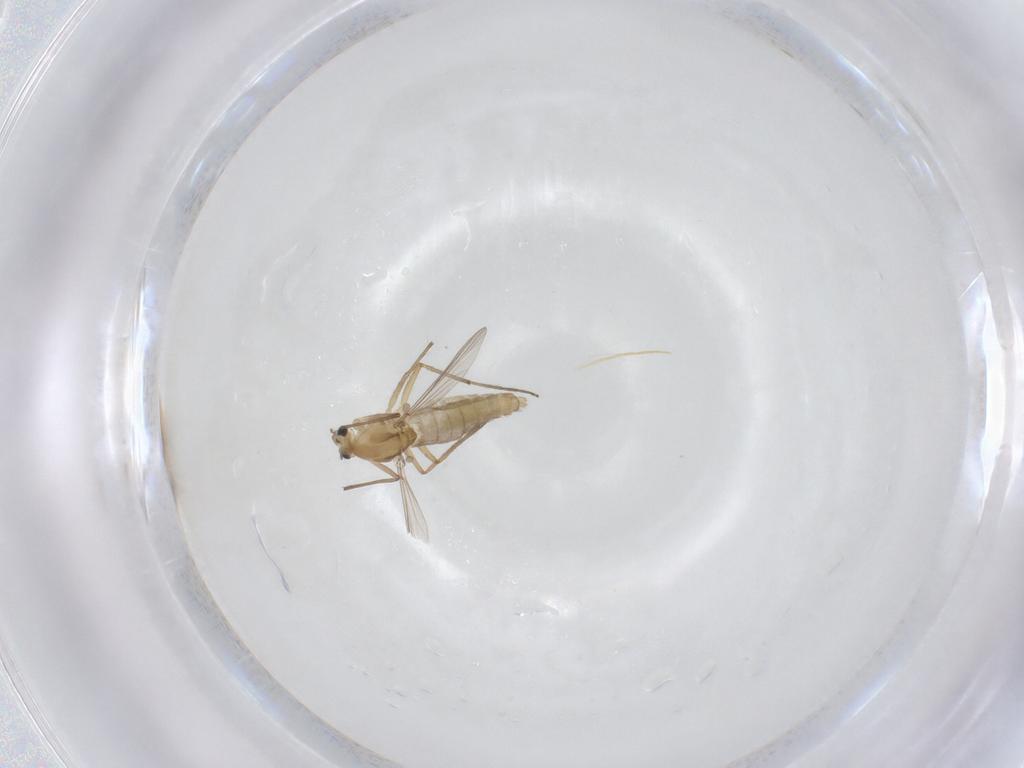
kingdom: Animalia
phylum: Arthropoda
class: Insecta
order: Diptera
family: Chironomidae
